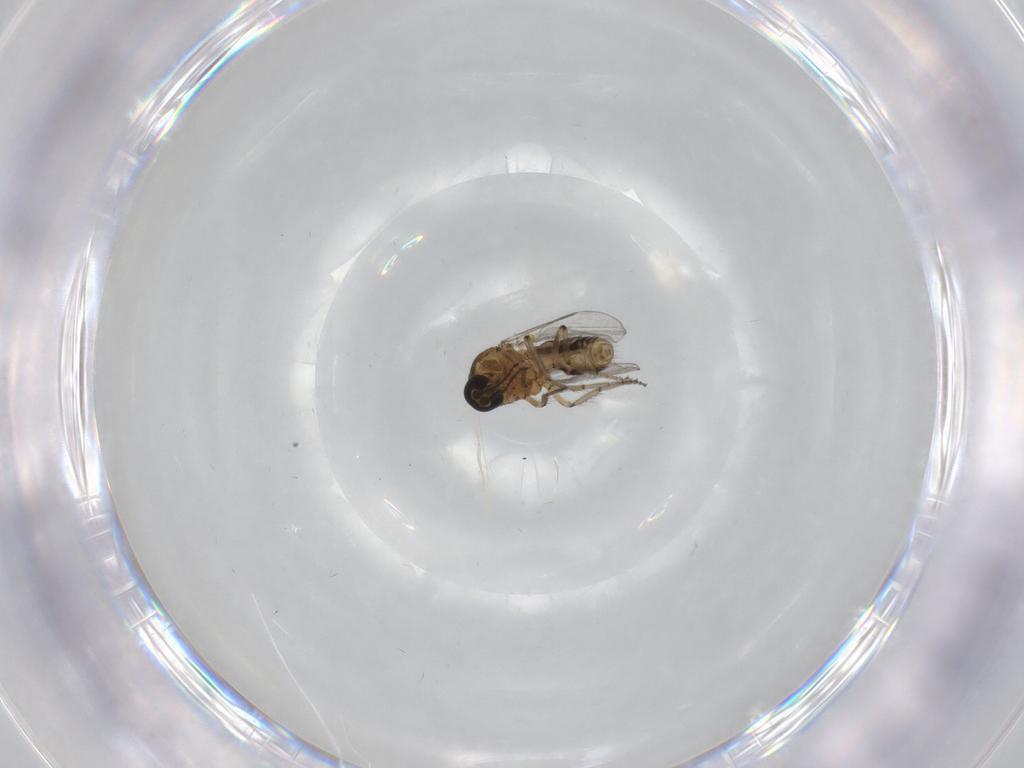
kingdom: Animalia
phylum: Arthropoda
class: Insecta
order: Diptera
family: Ceratopogonidae
